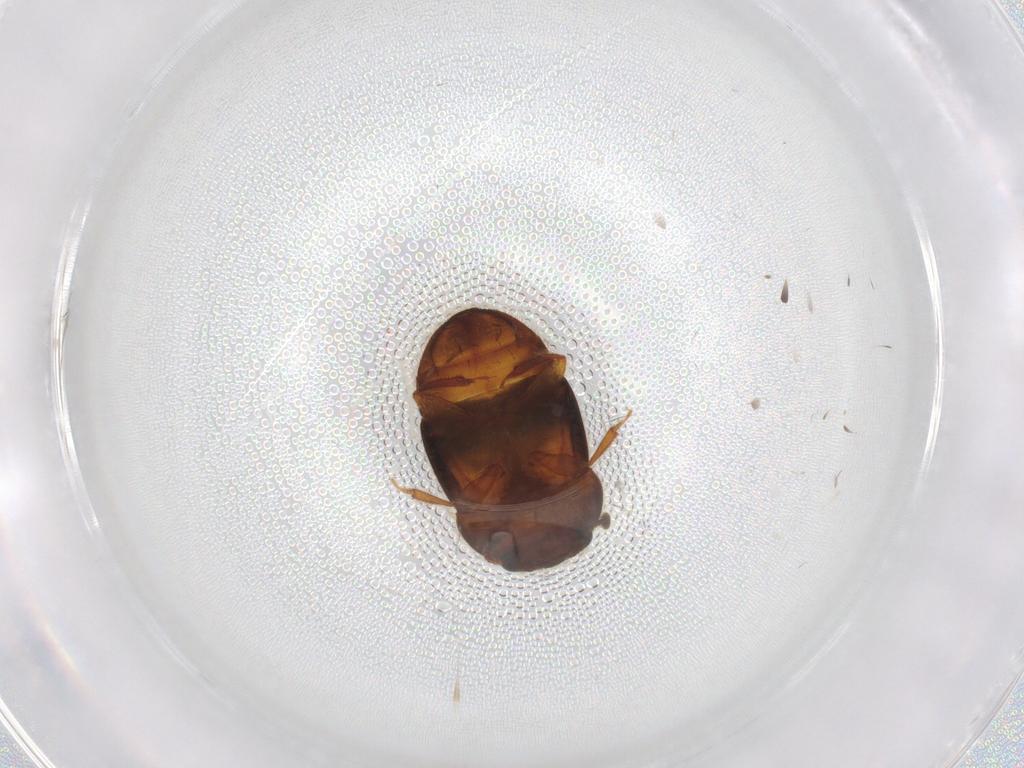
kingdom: Animalia
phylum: Arthropoda
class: Insecta
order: Coleoptera
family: Nitidulidae
